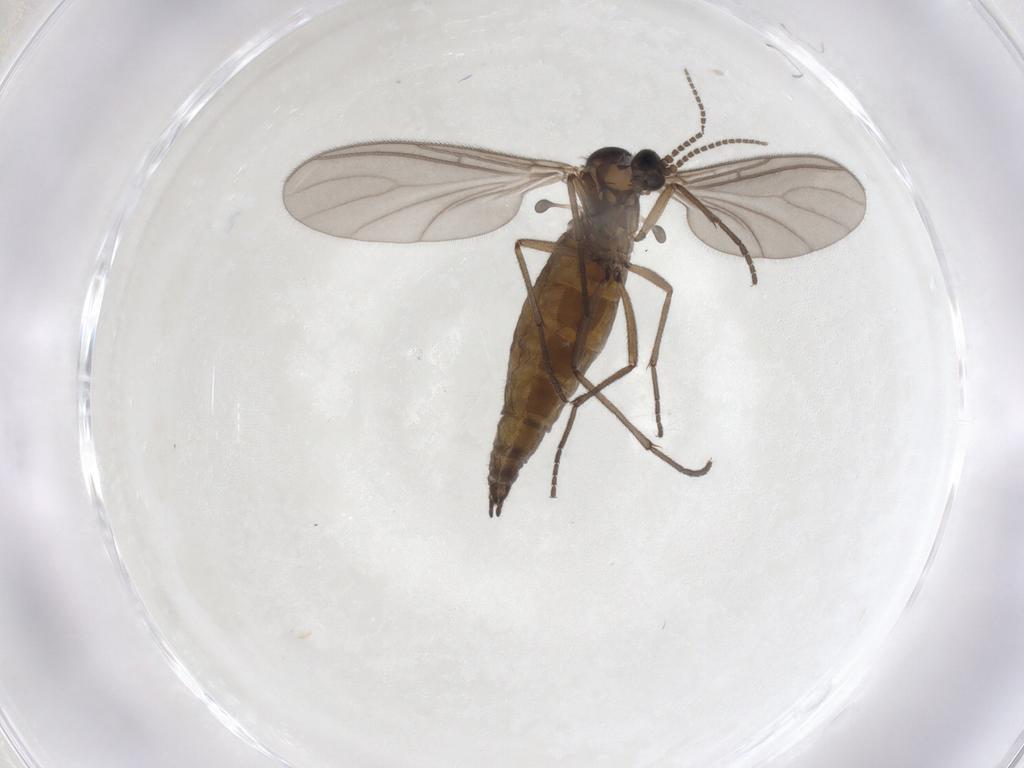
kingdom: Animalia
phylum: Arthropoda
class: Insecta
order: Diptera
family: Sciaridae
